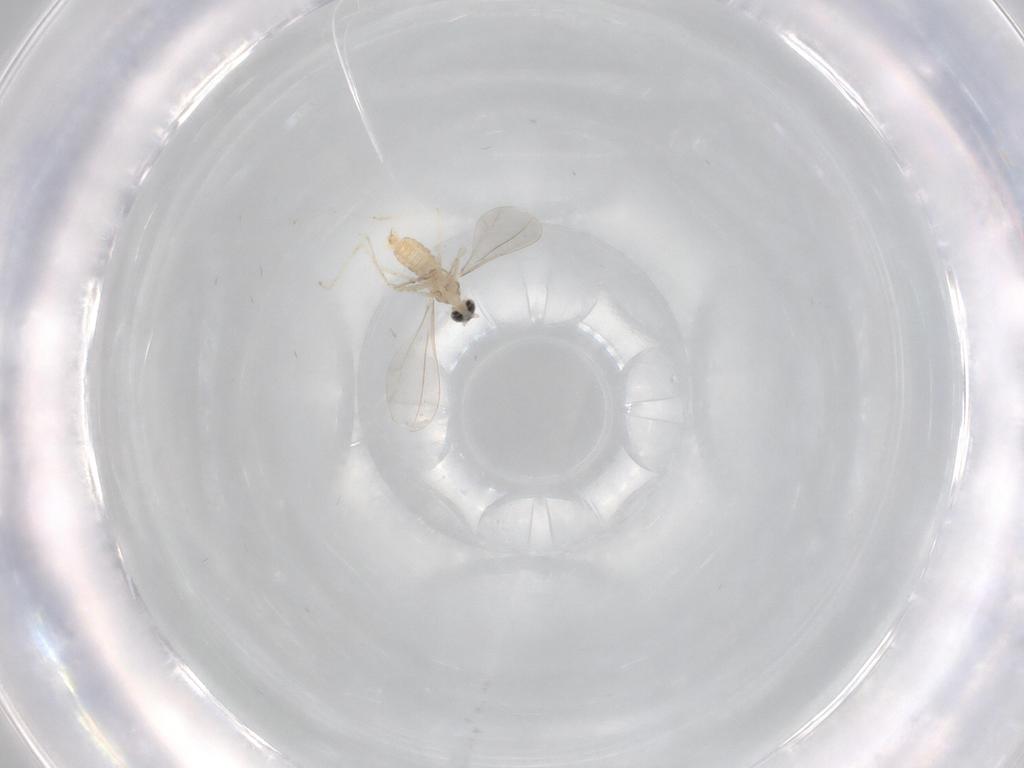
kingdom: Animalia
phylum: Arthropoda
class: Insecta
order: Diptera
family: Cecidomyiidae
